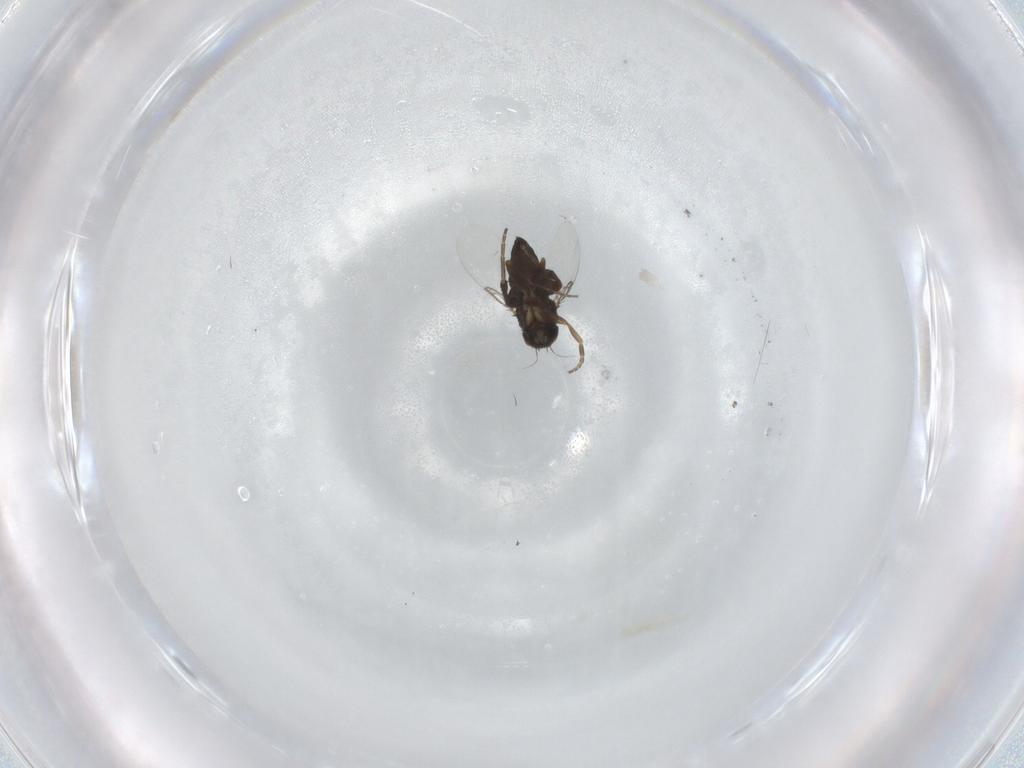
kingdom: Animalia
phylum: Arthropoda
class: Insecta
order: Diptera
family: Phoridae
